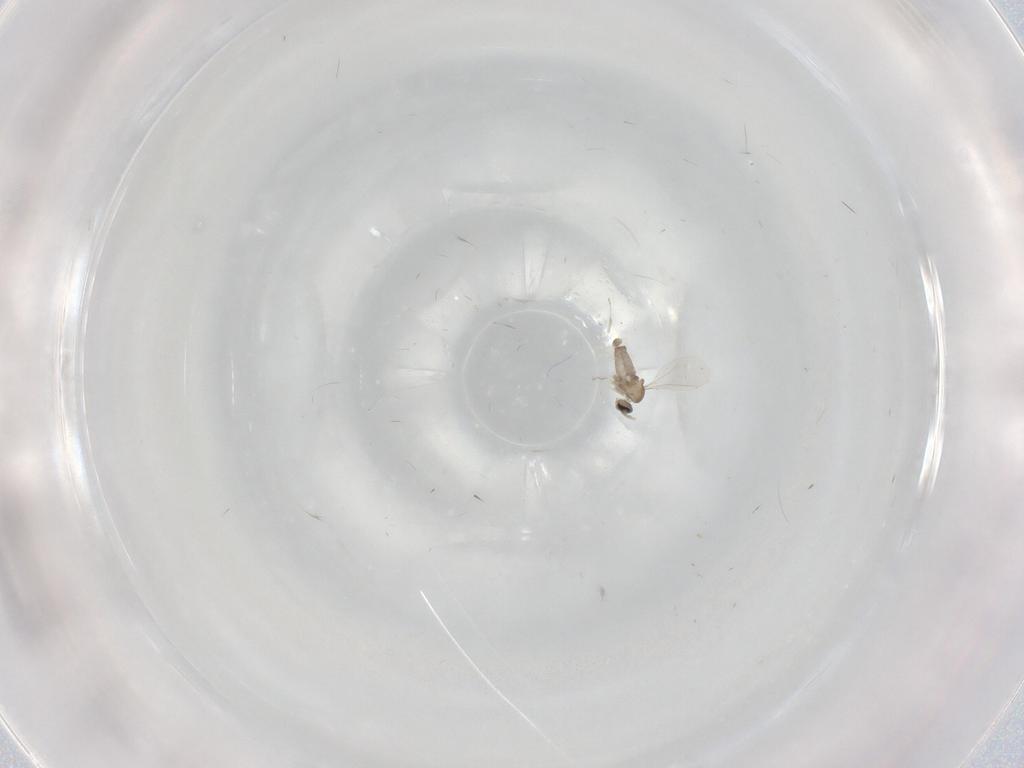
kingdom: Animalia
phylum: Arthropoda
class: Insecta
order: Diptera
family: Cecidomyiidae
